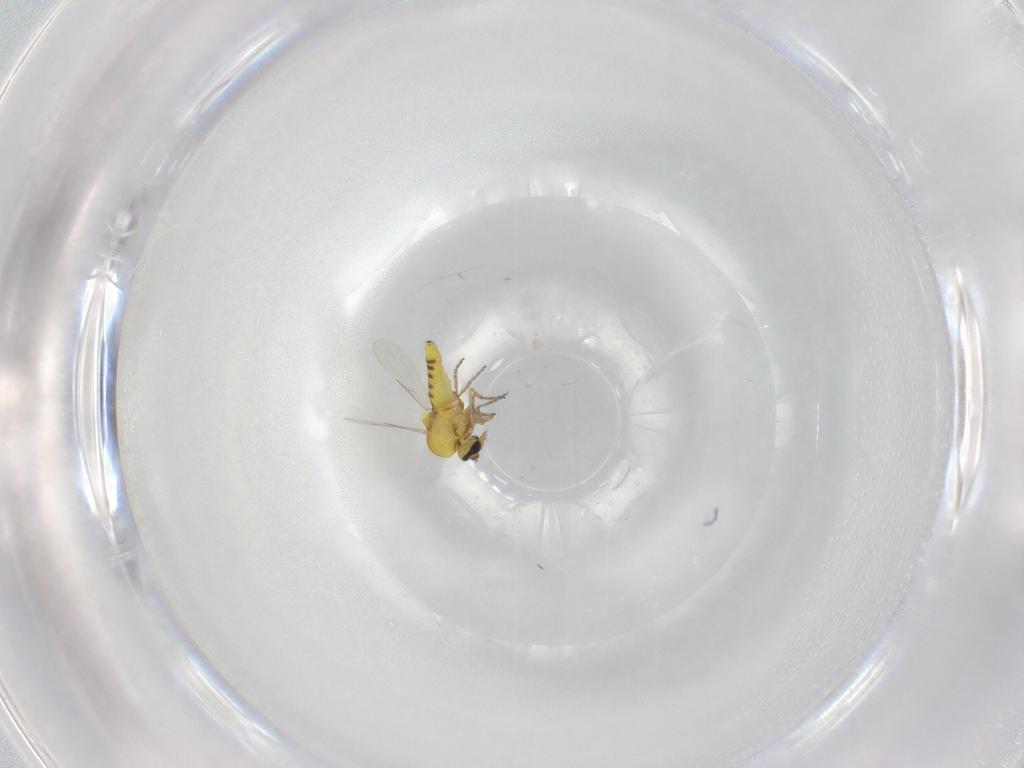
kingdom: Animalia
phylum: Arthropoda
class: Insecta
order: Diptera
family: Ceratopogonidae
